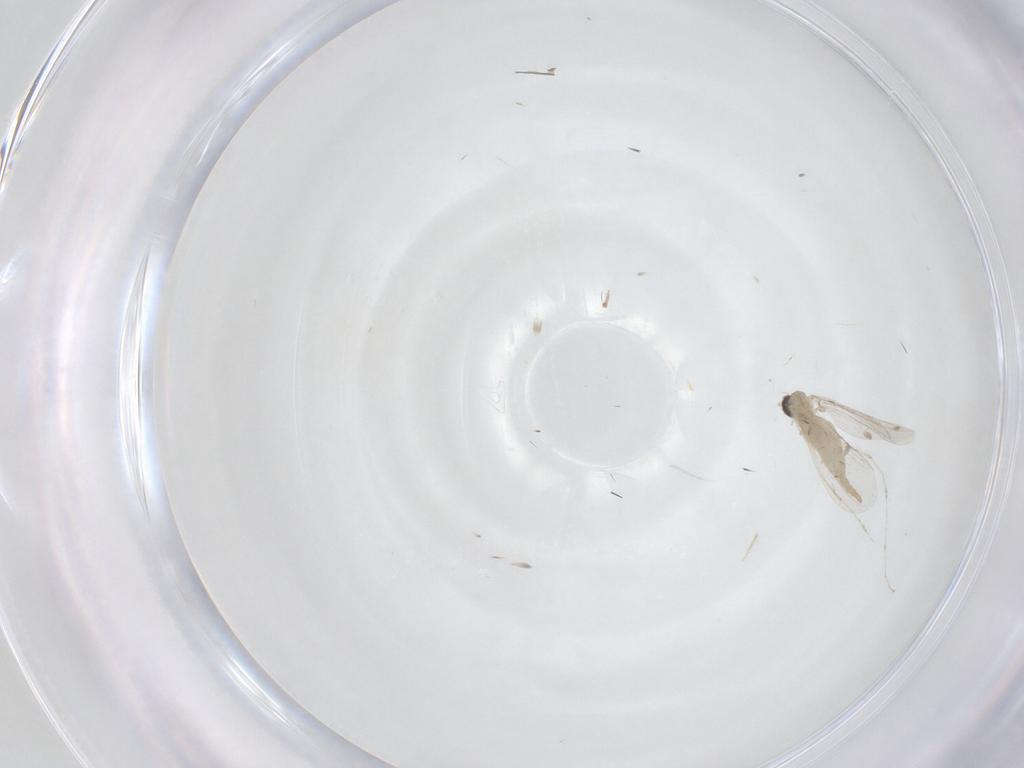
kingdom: Animalia
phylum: Arthropoda
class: Insecta
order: Diptera
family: Cecidomyiidae
